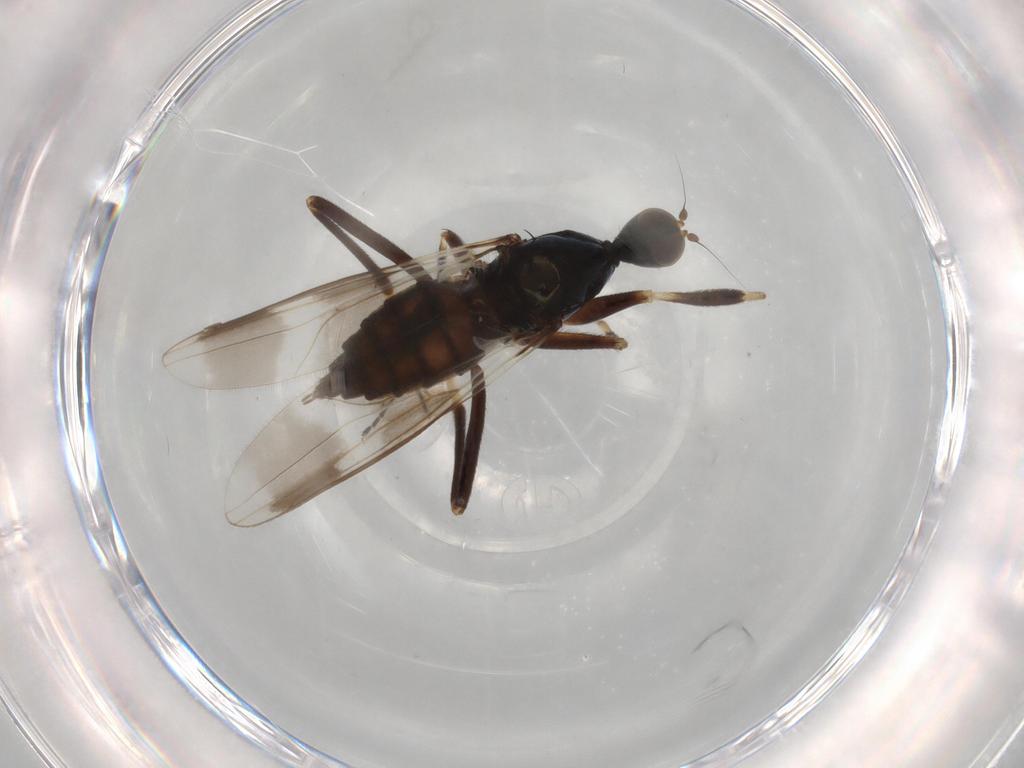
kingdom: Animalia
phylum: Arthropoda
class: Insecta
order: Diptera
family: Hybotidae
